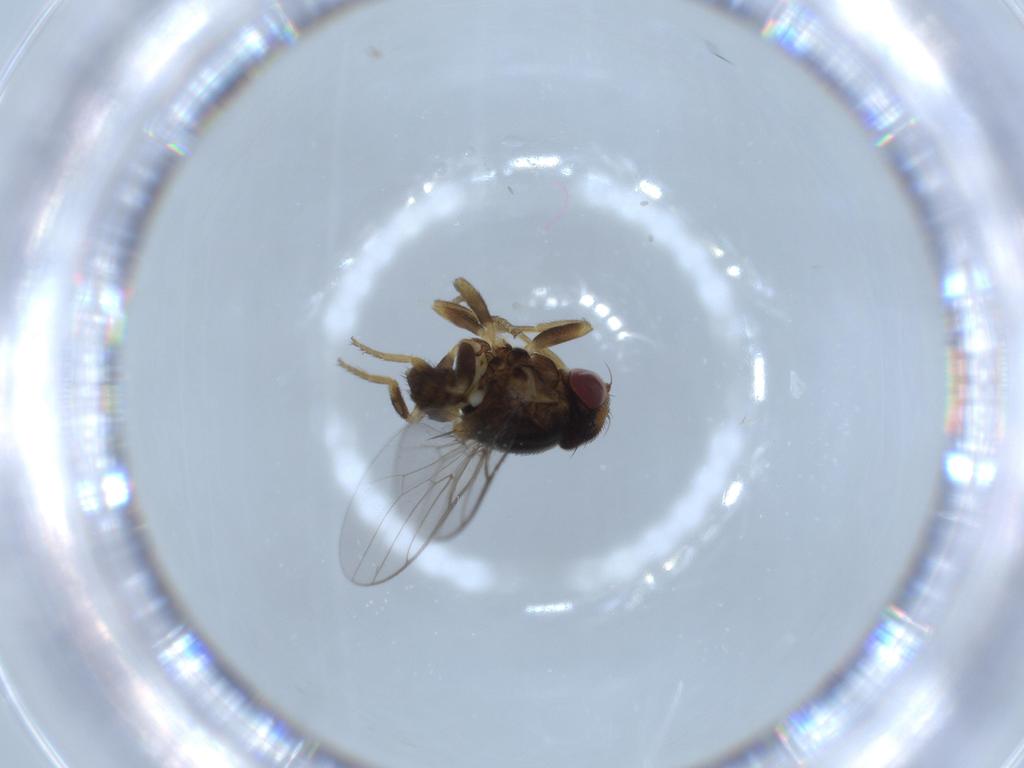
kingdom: Animalia
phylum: Arthropoda
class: Insecta
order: Diptera
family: Chloropidae
